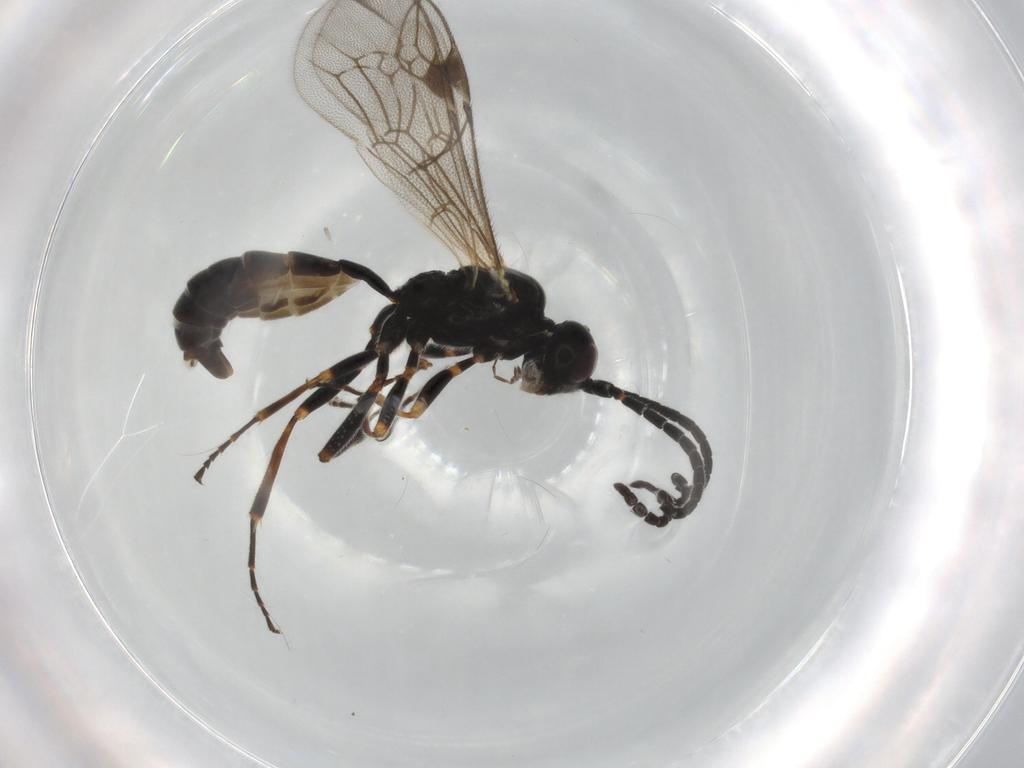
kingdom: Animalia
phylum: Arthropoda
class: Insecta
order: Hymenoptera
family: Ichneumonidae
